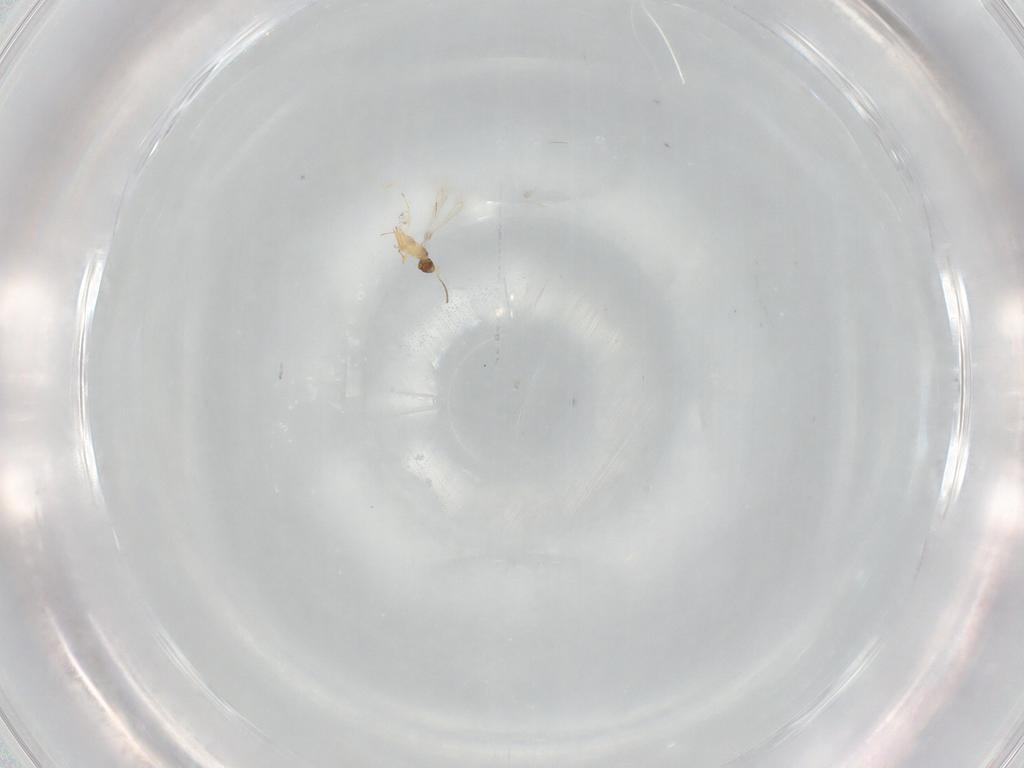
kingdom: Animalia
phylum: Arthropoda
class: Insecta
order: Hymenoptera
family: Mymaridae
